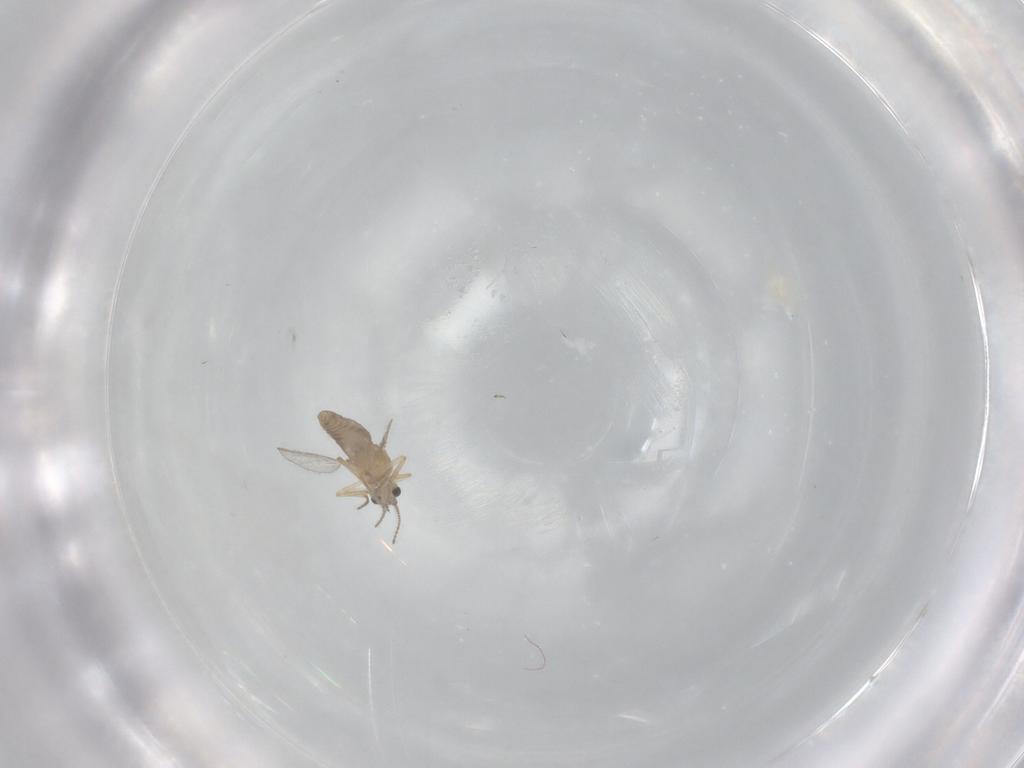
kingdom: Animalia
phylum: Arthropoda
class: Insecta
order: Diptera
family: Ceratopogonidae
